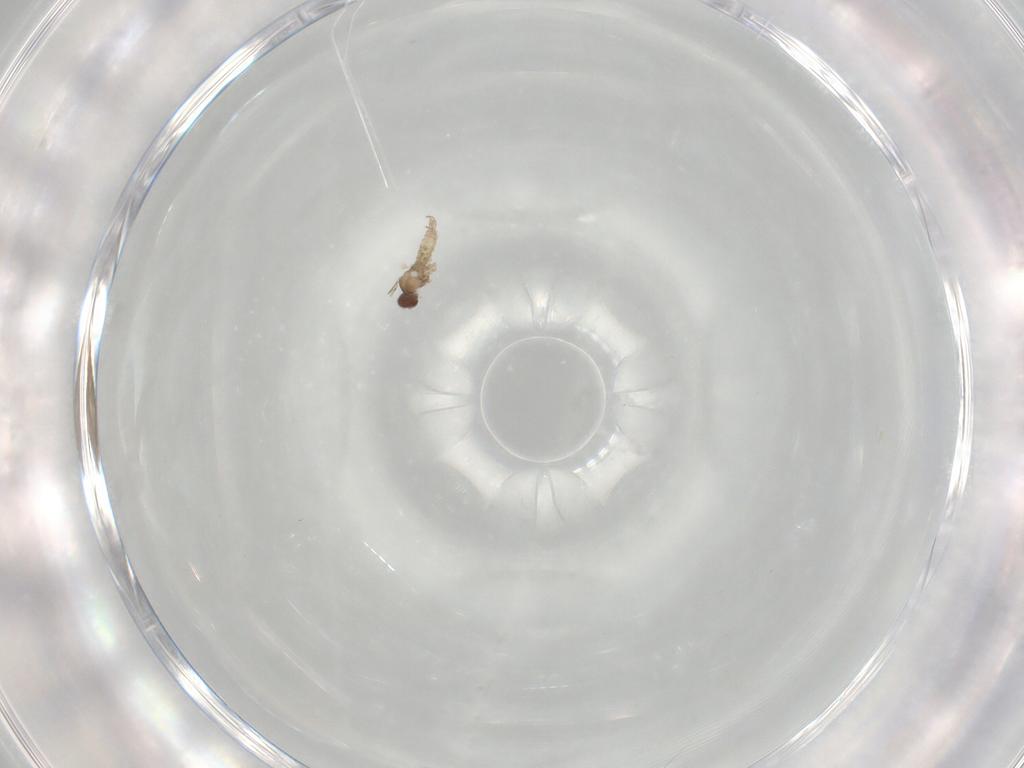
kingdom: Animalia
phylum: Arthropoda
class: Insecta
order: Diptera
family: Cecidomyiidae
